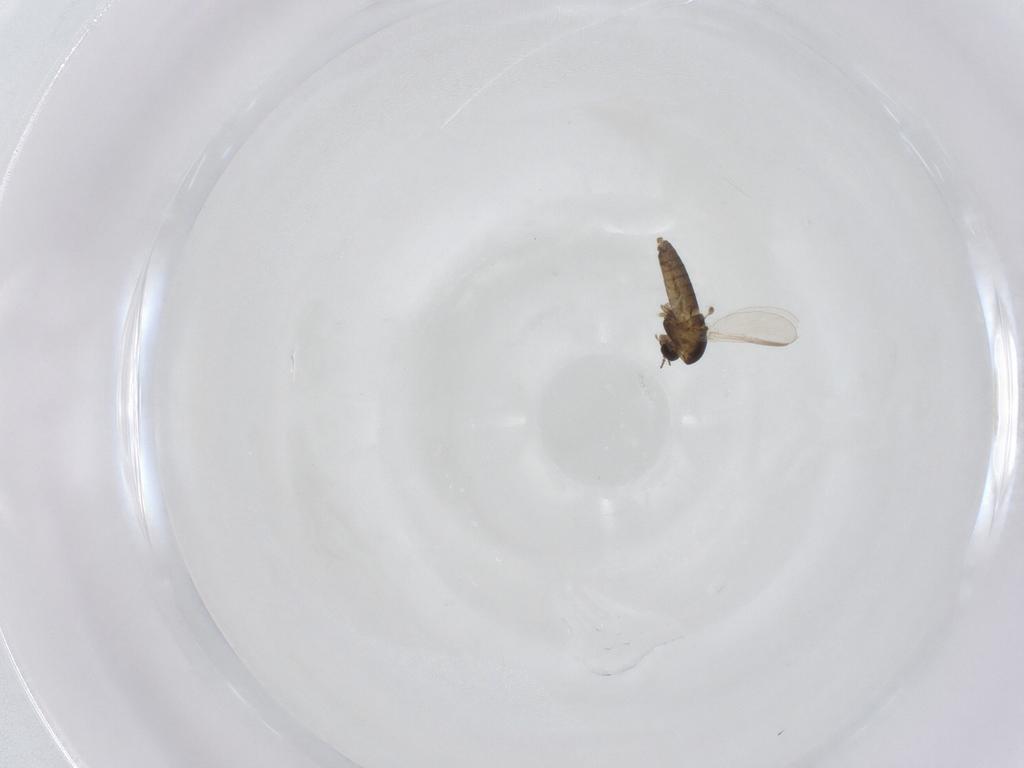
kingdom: Animalia
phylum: Arthropoda
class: Insecta
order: Diptera
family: Chironomidae
